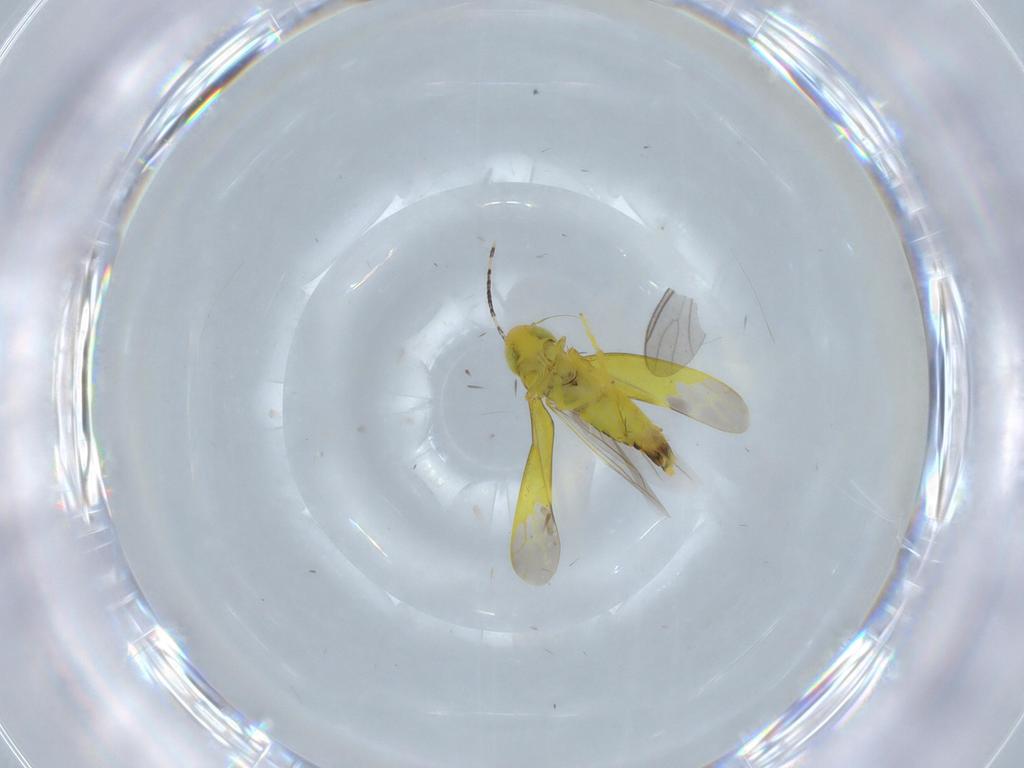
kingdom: Animalia
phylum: Arthropoda
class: Insecta
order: Hemiptera
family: Cicadellidae
